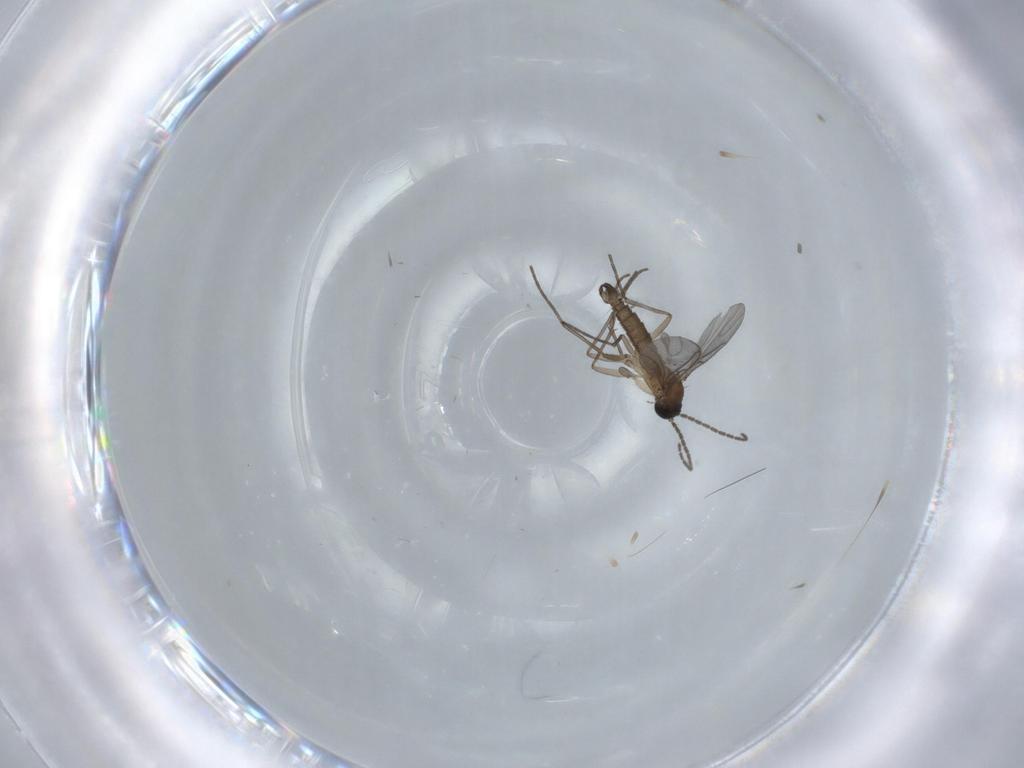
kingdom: Animalia
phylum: Arthropoda
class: Insecta
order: Diptera
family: Sciaridae
